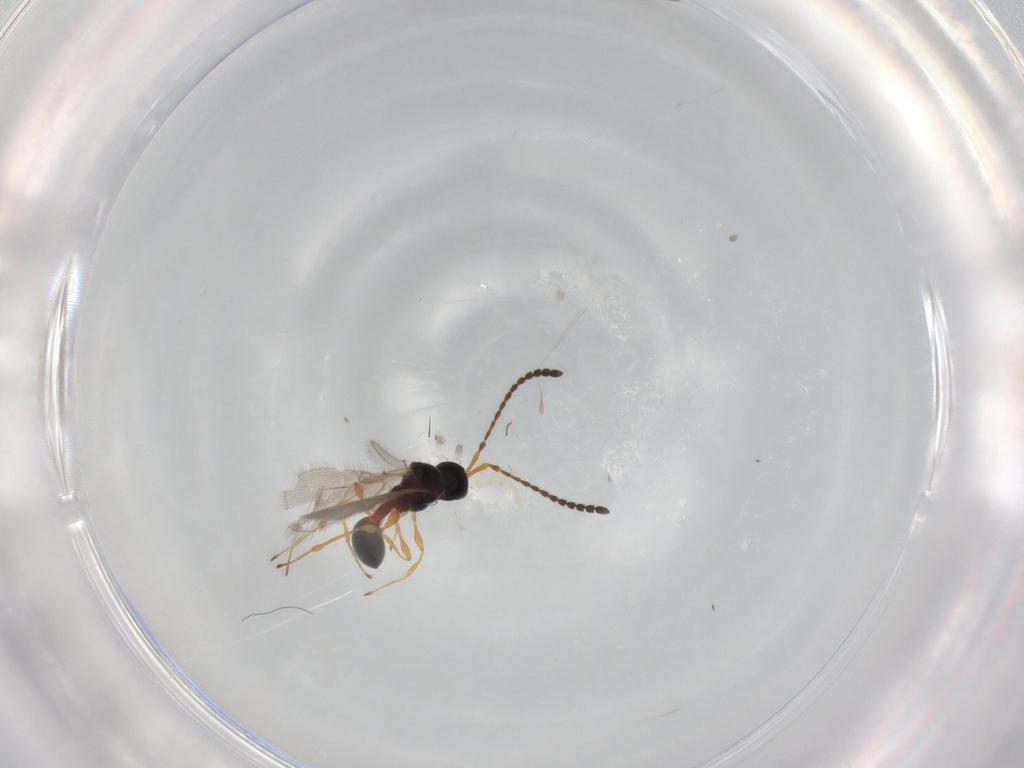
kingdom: Animalia
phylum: Arthropoda
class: Insecta
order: Hymenoptera
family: Diapriidae
